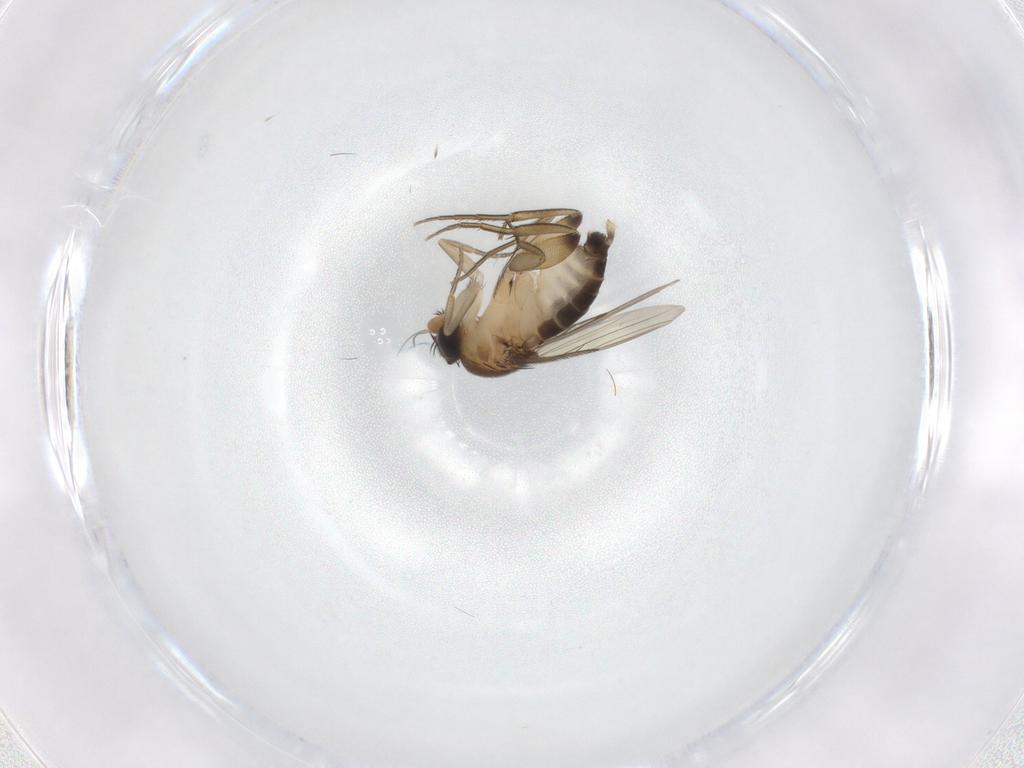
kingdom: Animalia
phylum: Arthropoda
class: Insecta
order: Diptera
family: Phoridae
